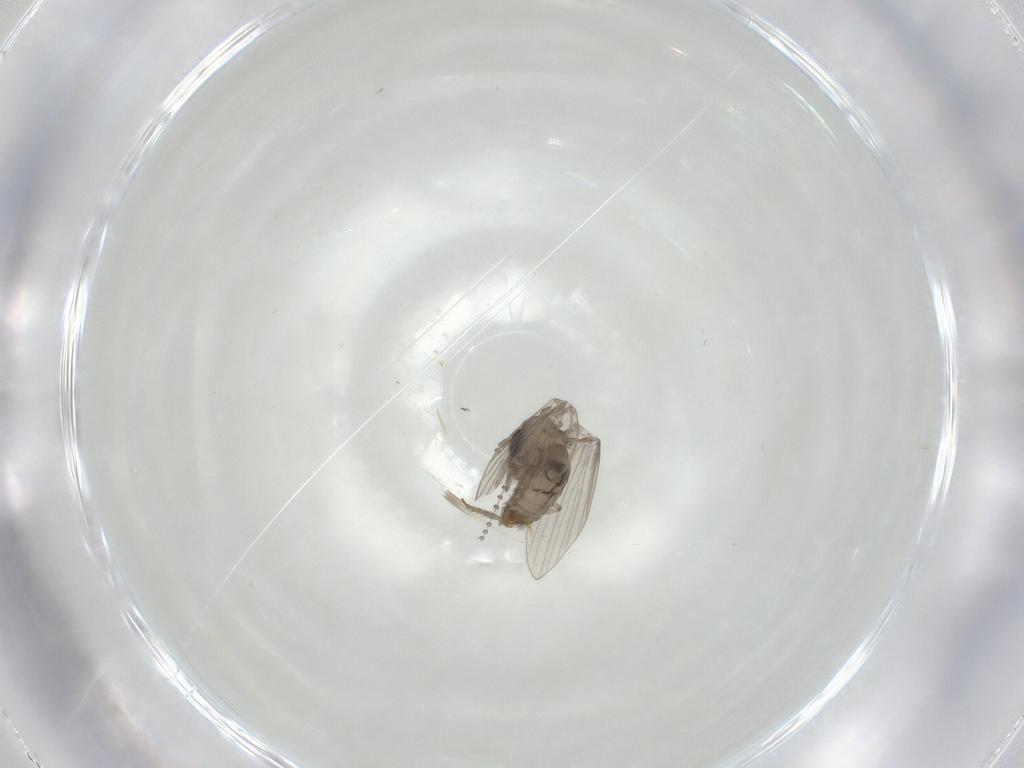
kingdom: Animalia
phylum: Arthropoda
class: Insecta
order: Diptera
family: Psychodidae
